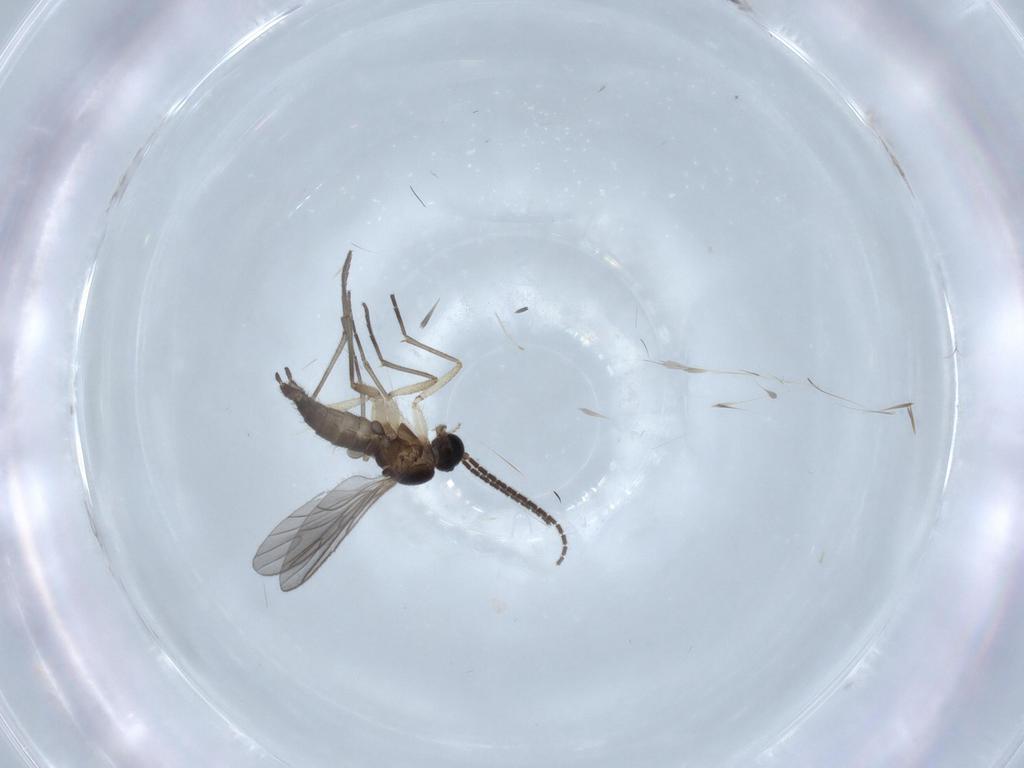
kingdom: Animalia
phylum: Arthropoda
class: Insecta
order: Diptera
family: Sciaridae
